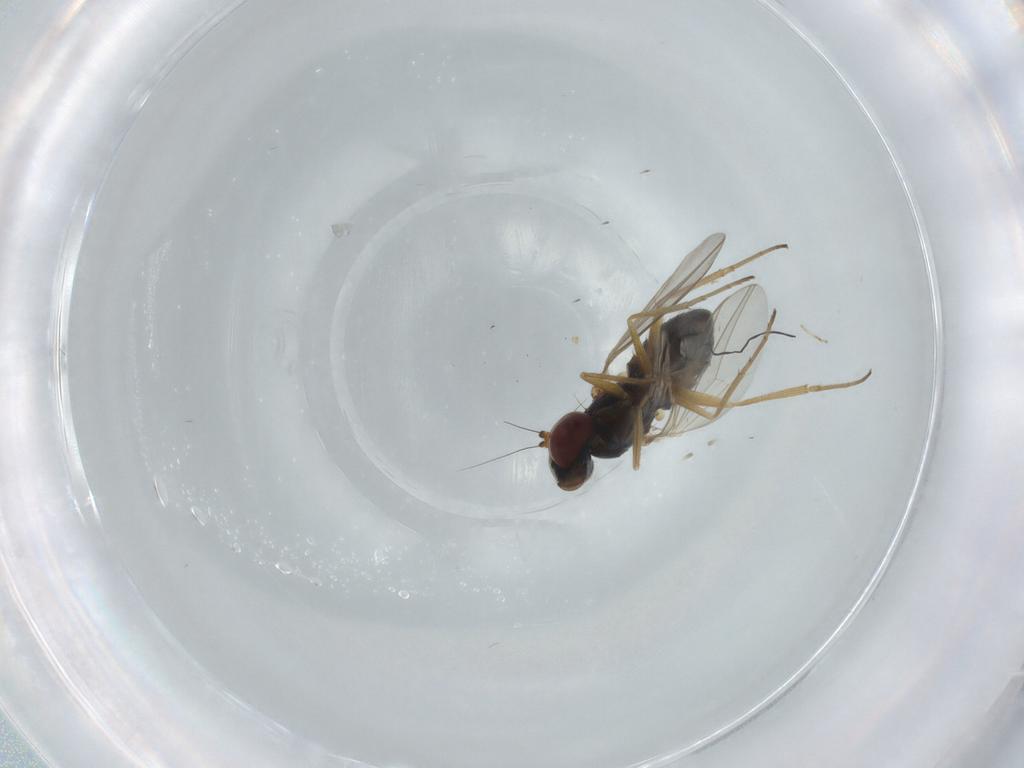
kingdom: Animalia
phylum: Arthropoda
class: Insecta
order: Diptera
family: Dolichopodidae
